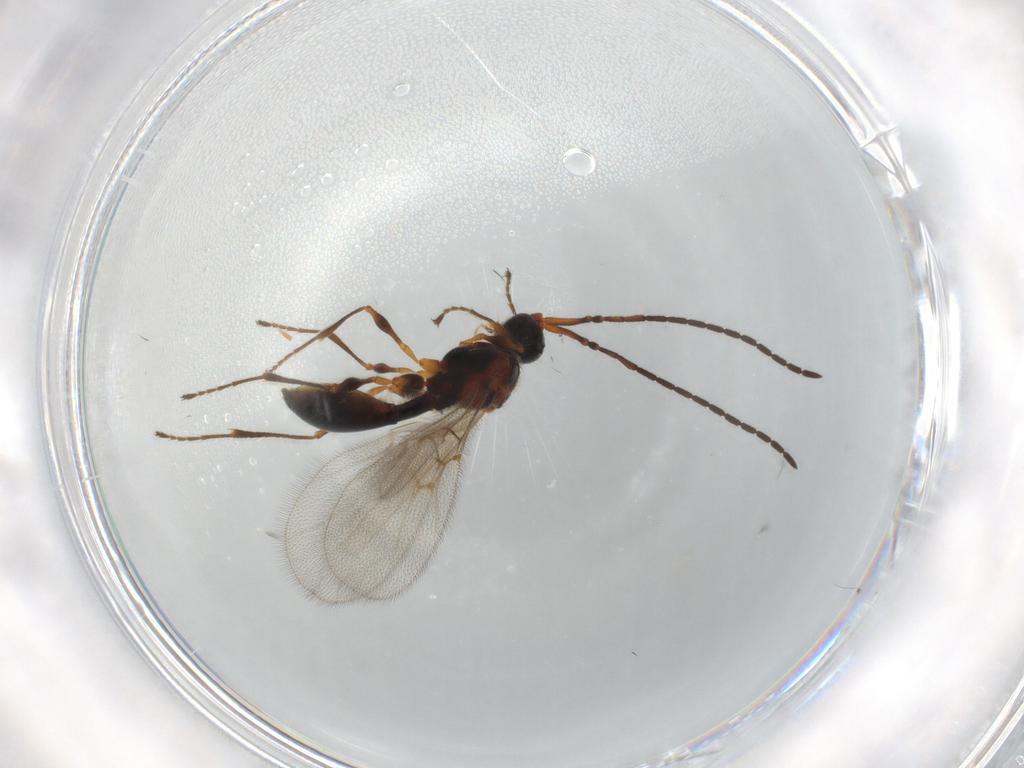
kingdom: Animalia
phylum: Arthropoda
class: Insecta
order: Hymenoptera
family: Diapriidae
